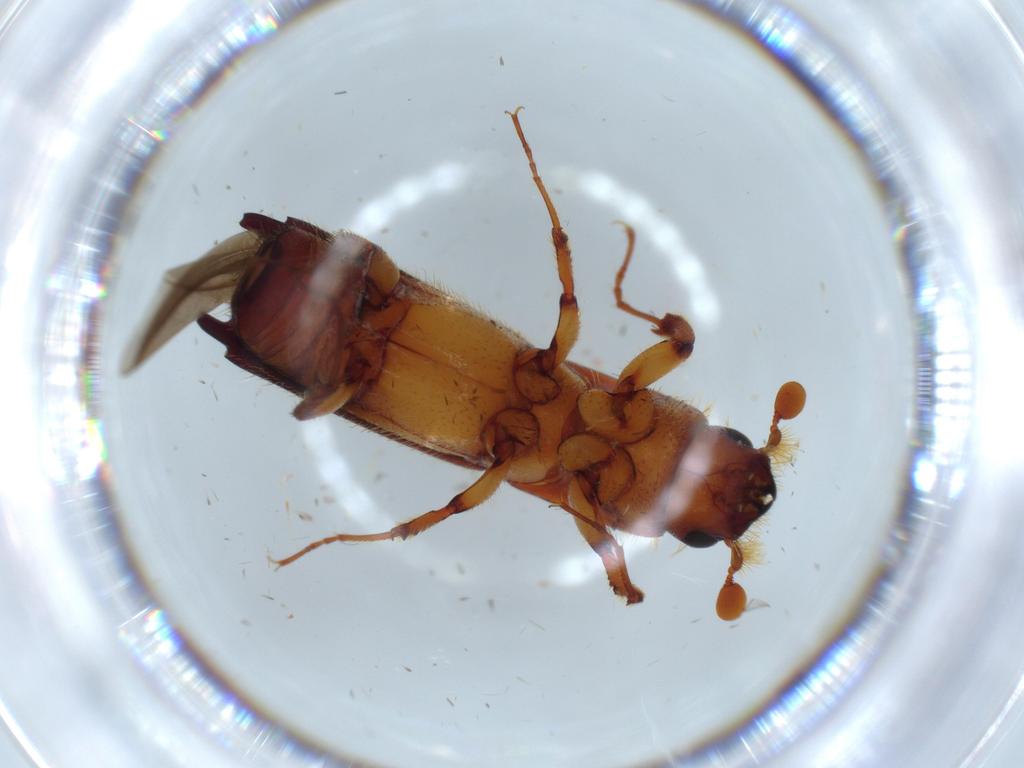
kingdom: Animalia
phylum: Arthropoda
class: Insecta
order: Coleoptera
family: Curculionidae
